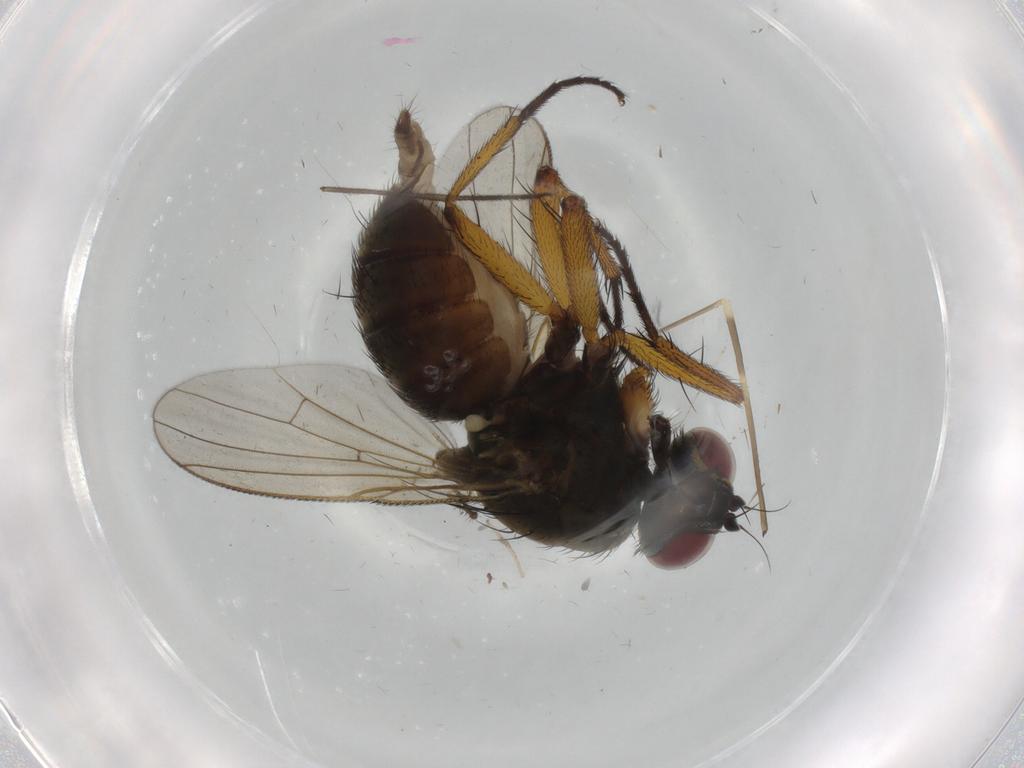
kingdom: Animalia
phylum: Arthropoda
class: Insecta
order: Diptera
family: Muscidae
